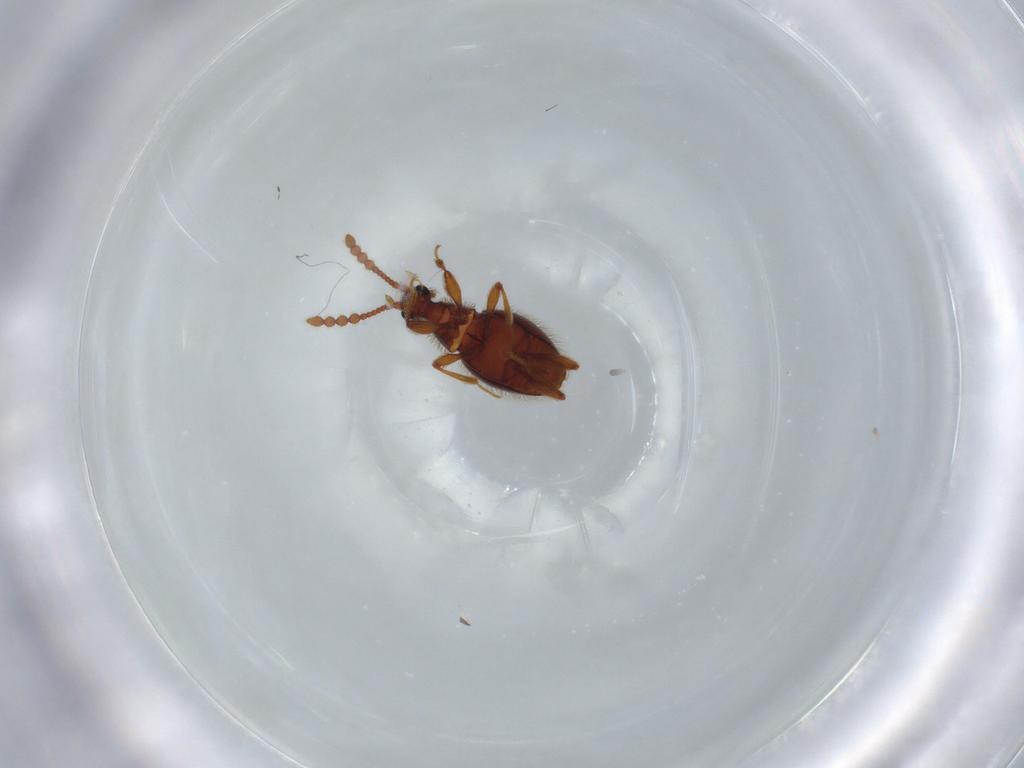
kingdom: Animalia
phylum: Arthropoda
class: Insecta
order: Coleoptera
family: Staphylinidae
